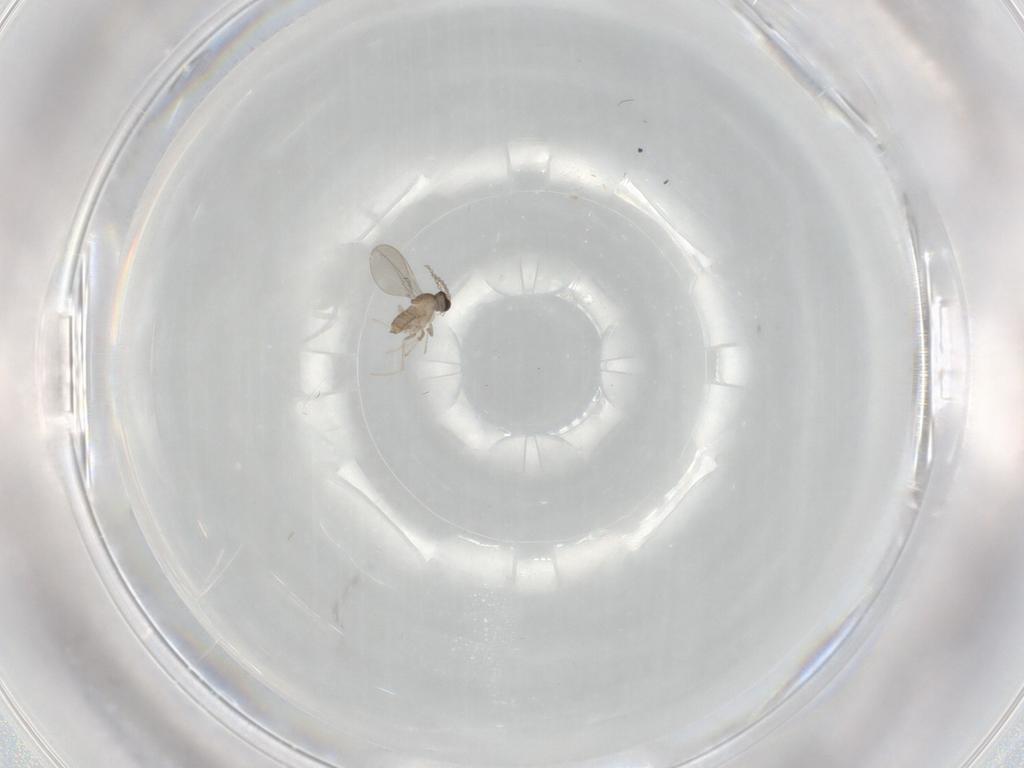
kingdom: Animalia
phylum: Arthropoda
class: Insecta
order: Diptera
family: Cecidomyiidae
